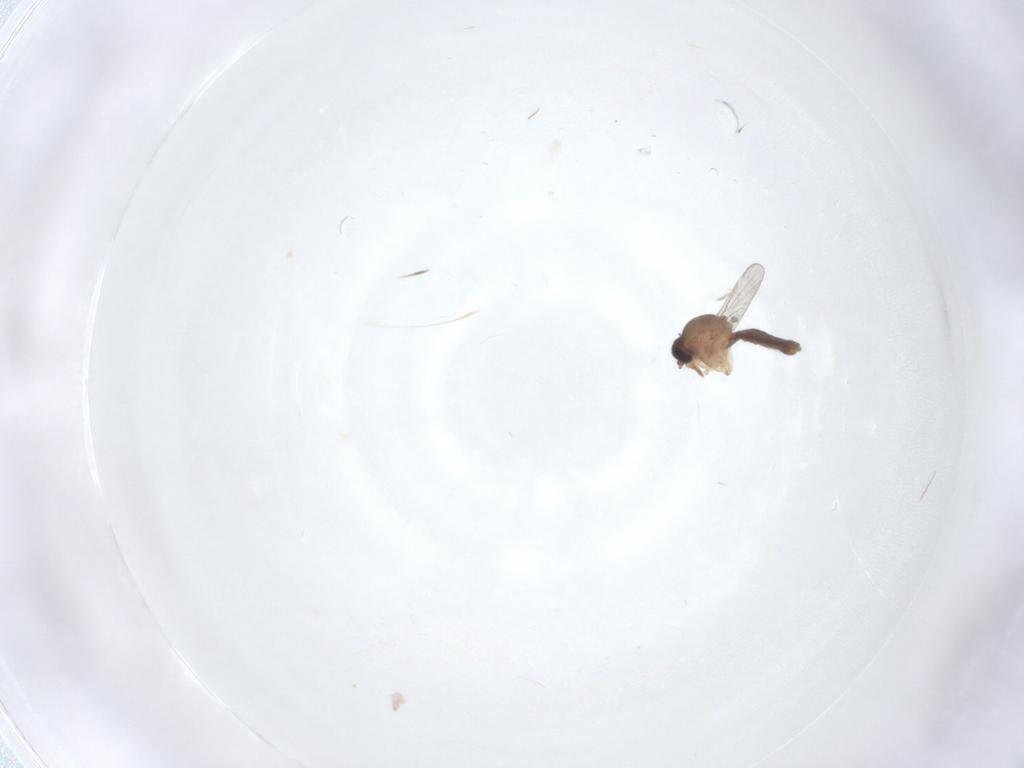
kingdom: Animalia
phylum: Arthropoda
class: Insecta
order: Diptera
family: Ceratopogonidae
